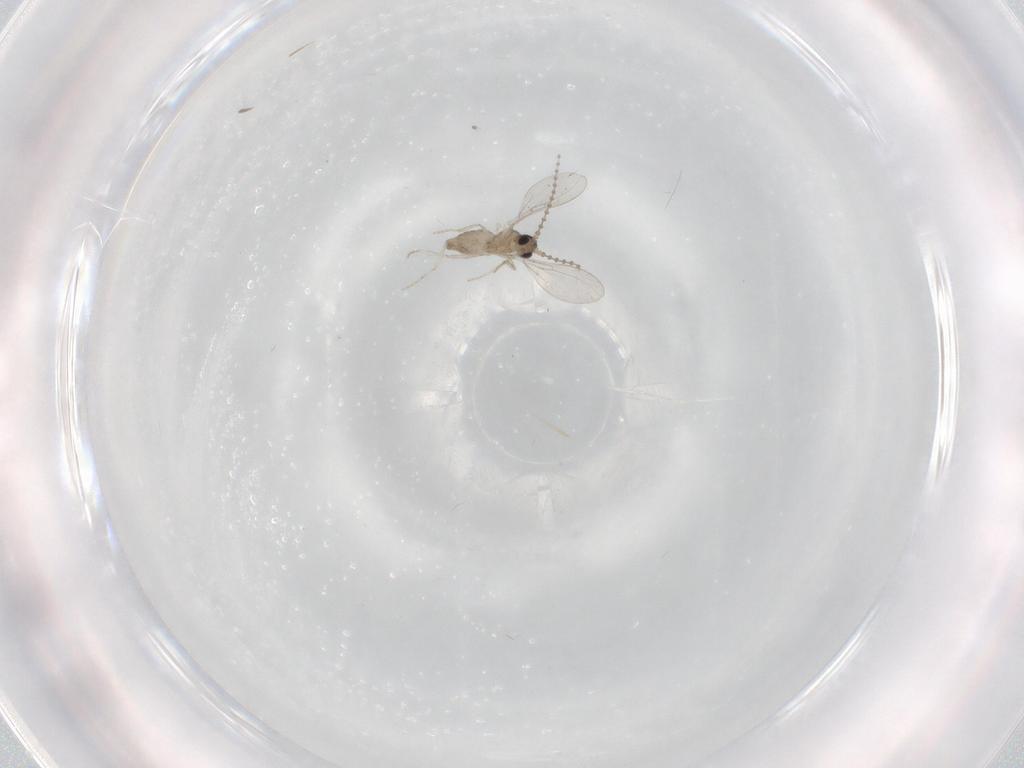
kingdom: Animalia
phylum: Arthropoda
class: Insecta
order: Diptera
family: Cecidomyiidae
